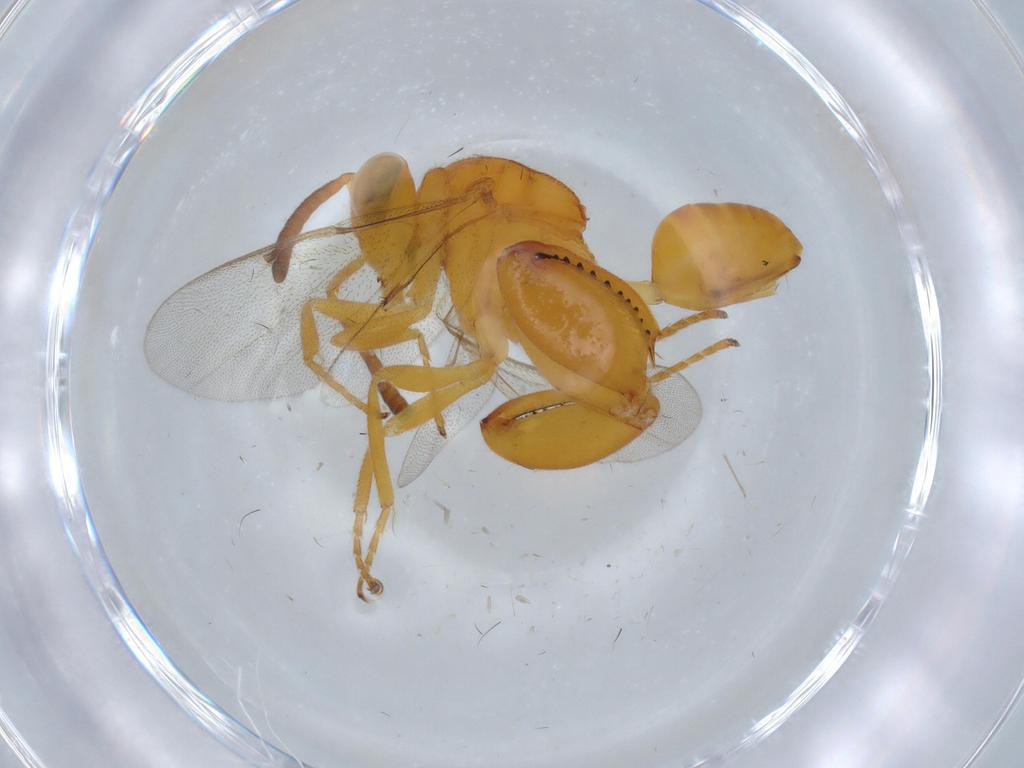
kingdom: Animalia
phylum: Arthropoda
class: Insecta
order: Hymenoptera
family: Formicidae
